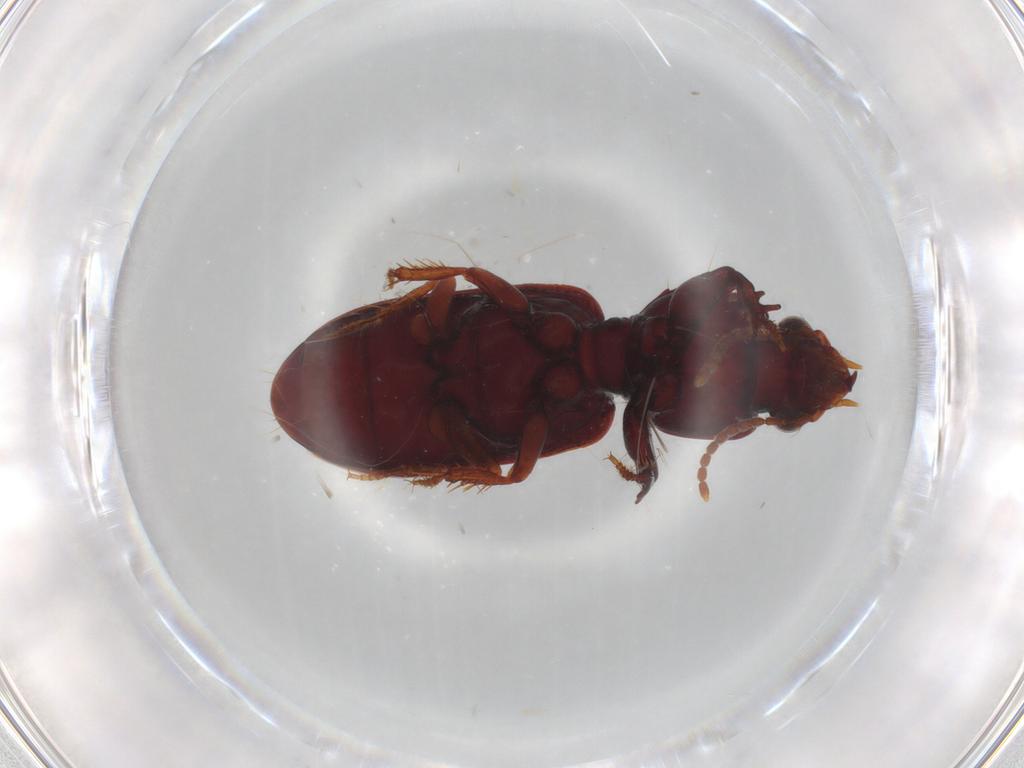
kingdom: Animalia
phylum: Arthropoda
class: Insecta
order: Coleoptera
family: Carabidae
